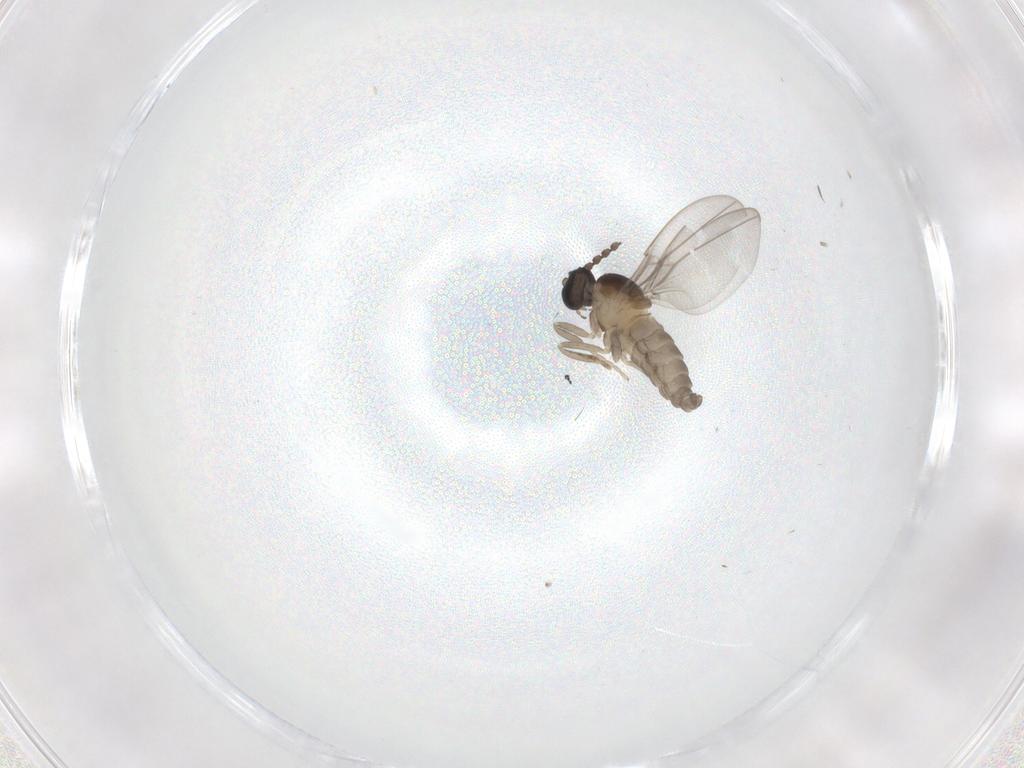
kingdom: Animalia
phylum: Arthropoda
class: Insecta
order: Diptera
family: Cecidomyiidae
